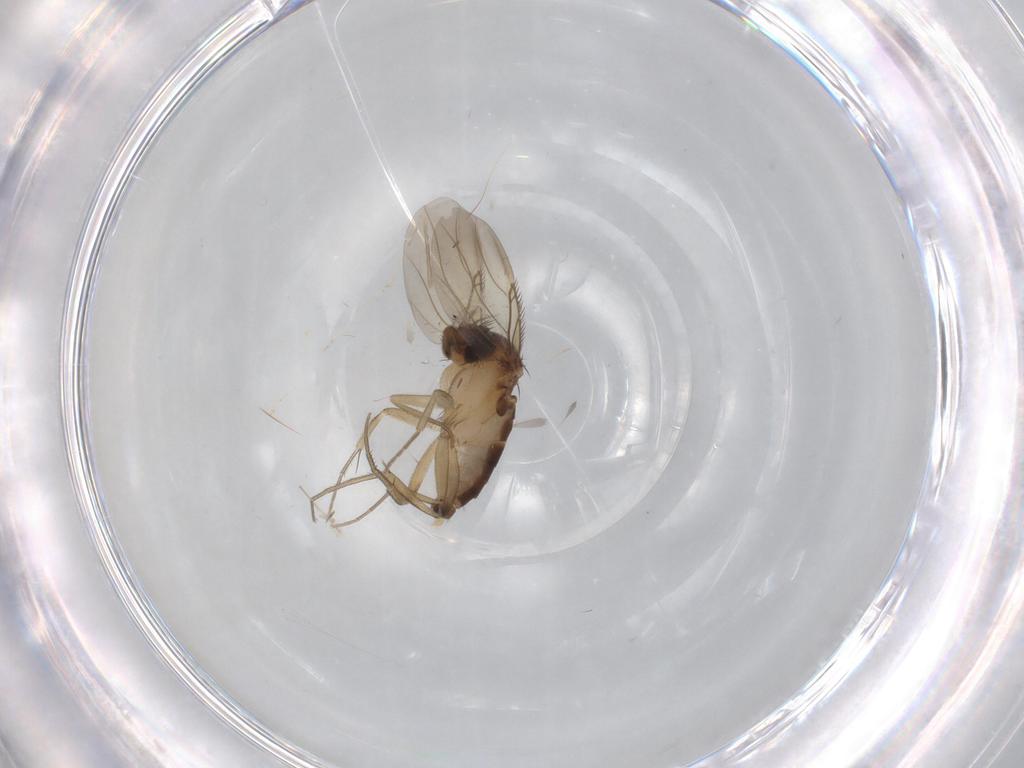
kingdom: Animalia
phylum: Arthropoda
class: Insecta
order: Diptera
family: Phoridae
